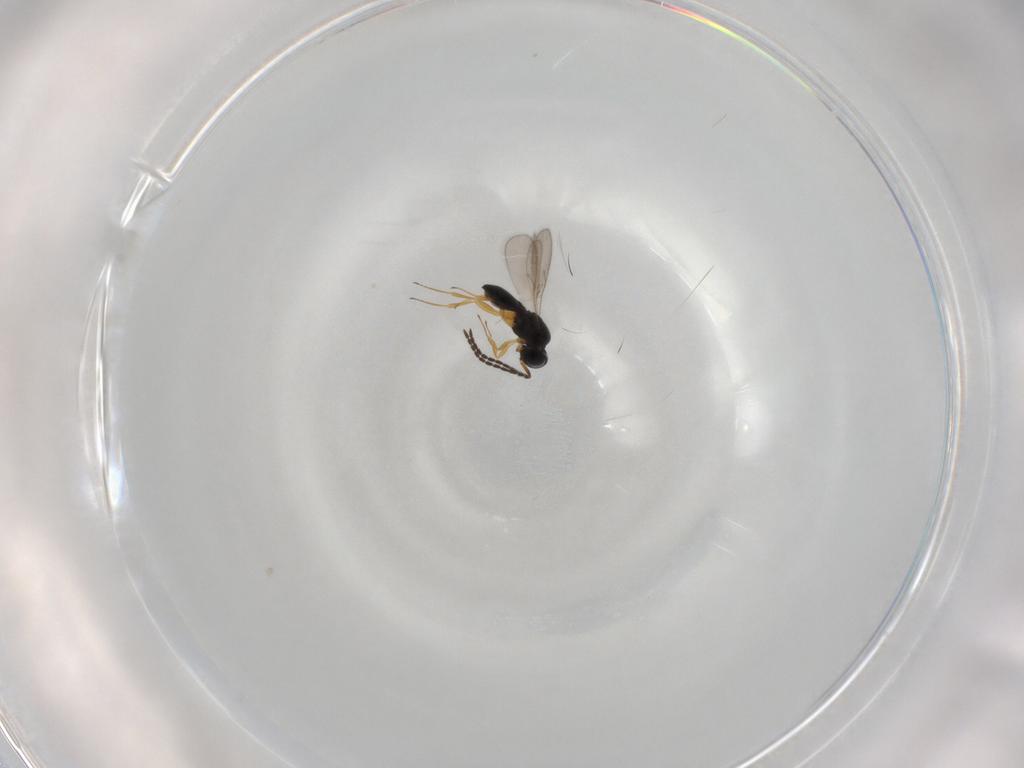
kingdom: Animalia
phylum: Arthropoda
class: Insecta
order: Hymenoptera
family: Scelionidae
